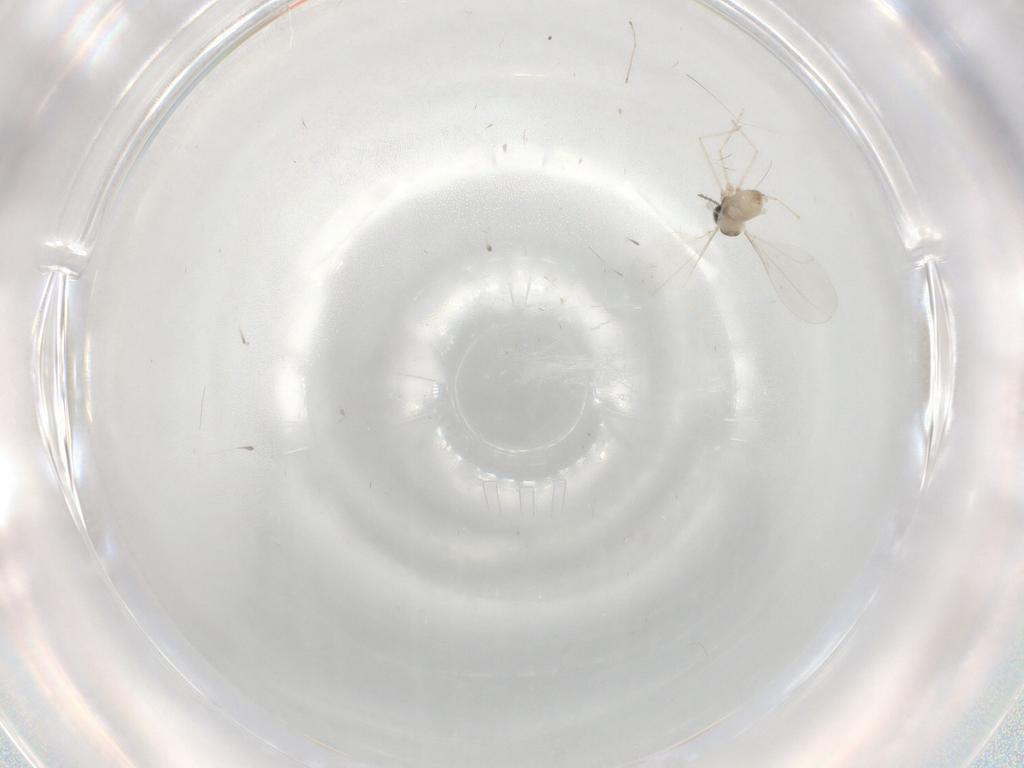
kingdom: Animalia
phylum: Arthropoda
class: Insecta
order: Diptera
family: Cecidomyiidae
